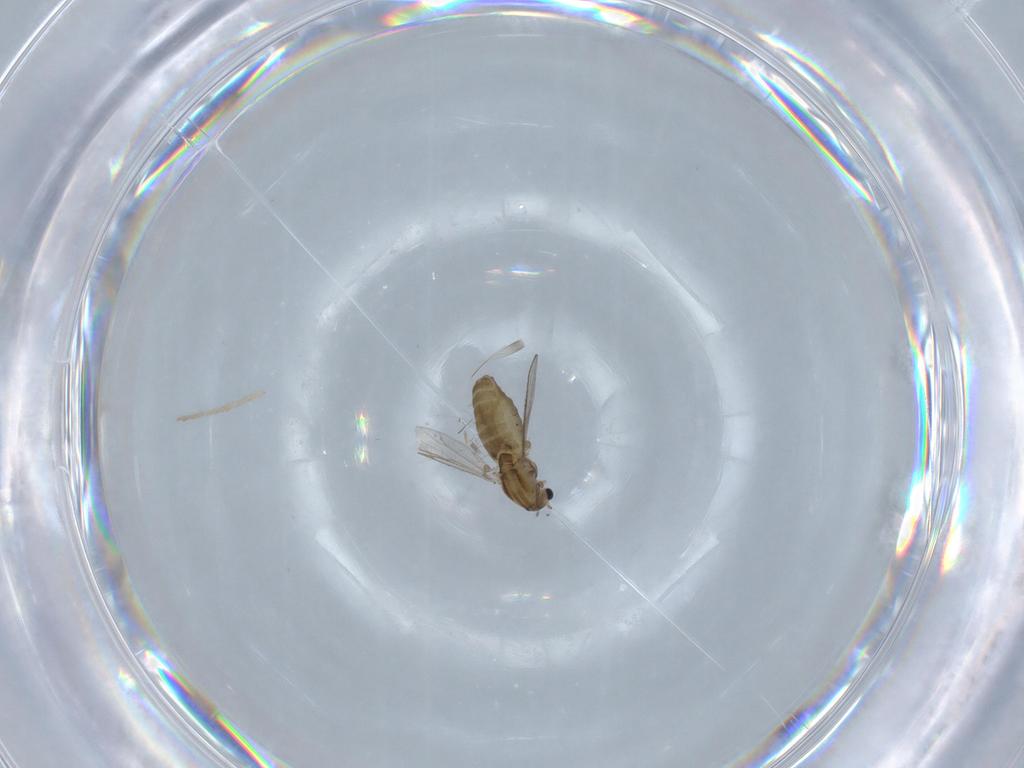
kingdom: Animalia
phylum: Arthropoda
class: Insecta
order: Diptera
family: Chironomidae
